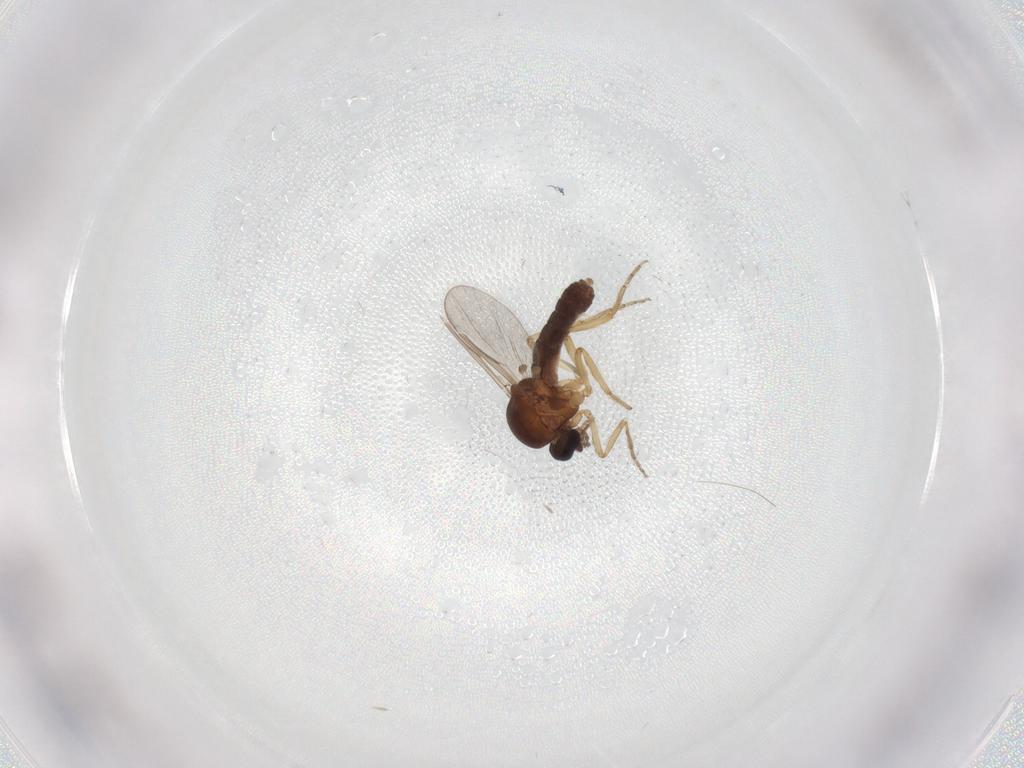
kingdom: Animalia
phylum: Arthropoda
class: Insecta
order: Diptera
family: Ceratopogonidae
